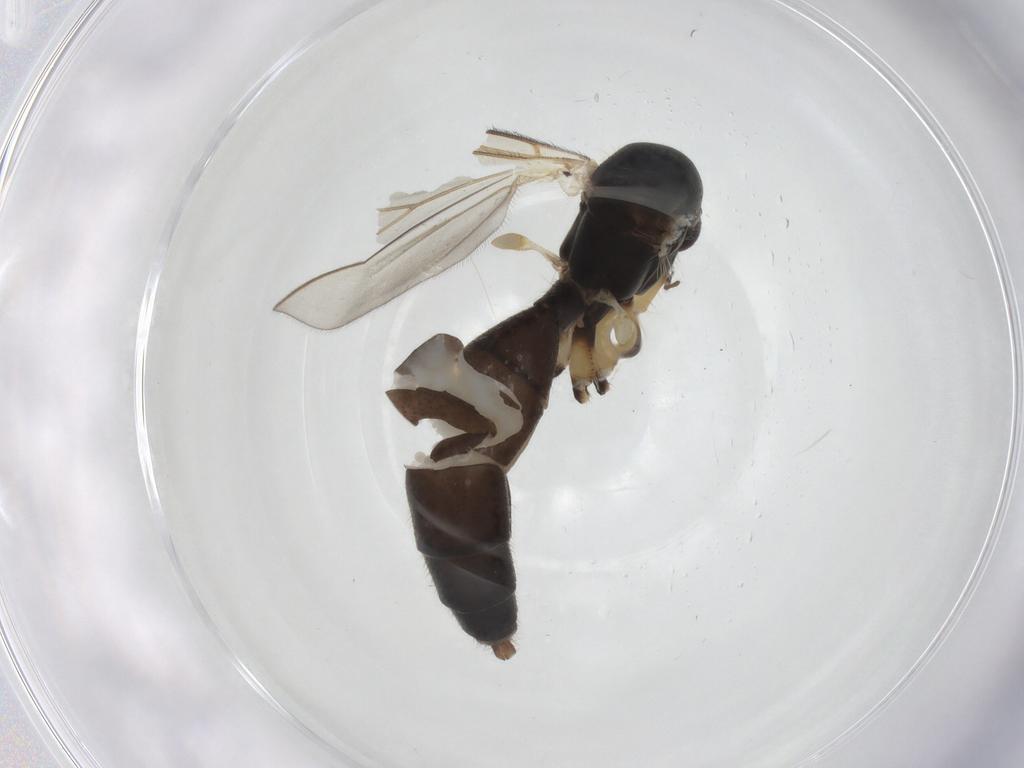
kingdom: Animalia
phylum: Arthropoda
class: Insecta
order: Diptera
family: Mycetophilidae
